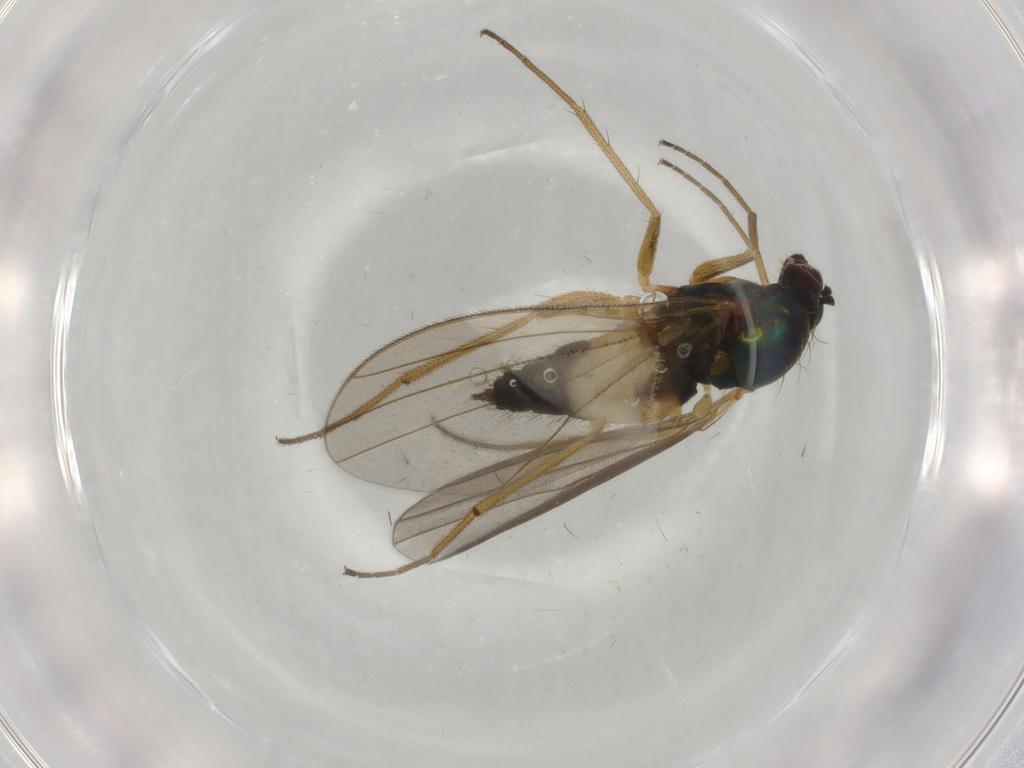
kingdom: Animalia
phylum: Arthropoda
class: Insecta
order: Diptera
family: Dolichopodidae
